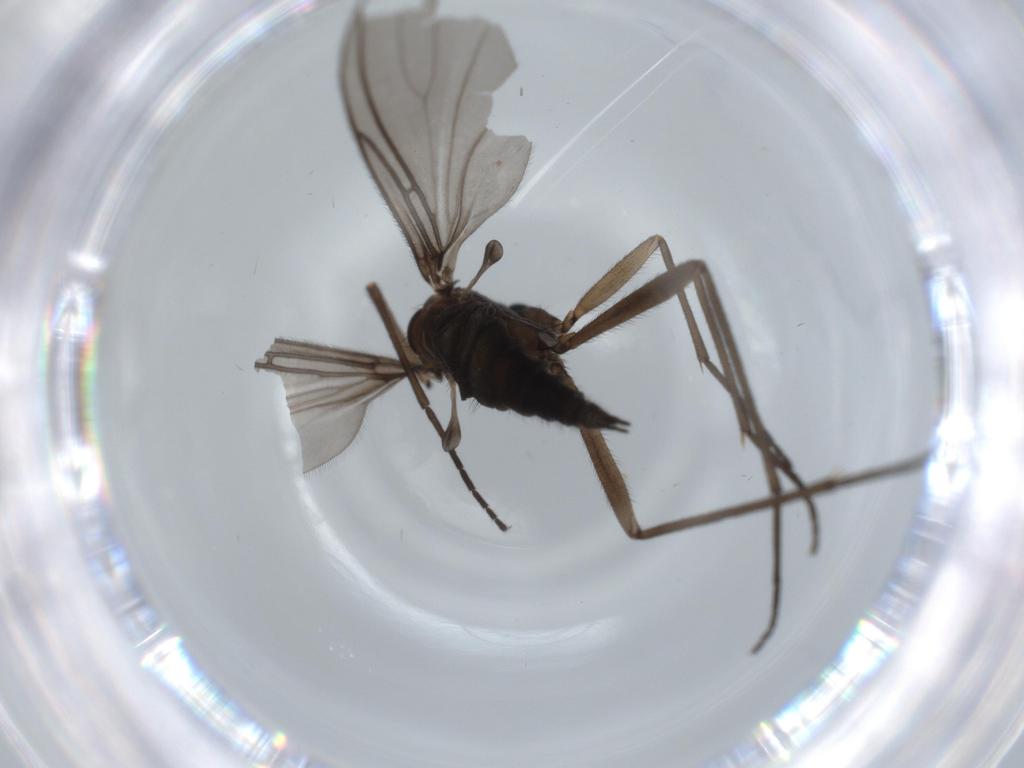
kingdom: Animalia
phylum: Arthropoda
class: Insecta
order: Diptera
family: Sciaridae
